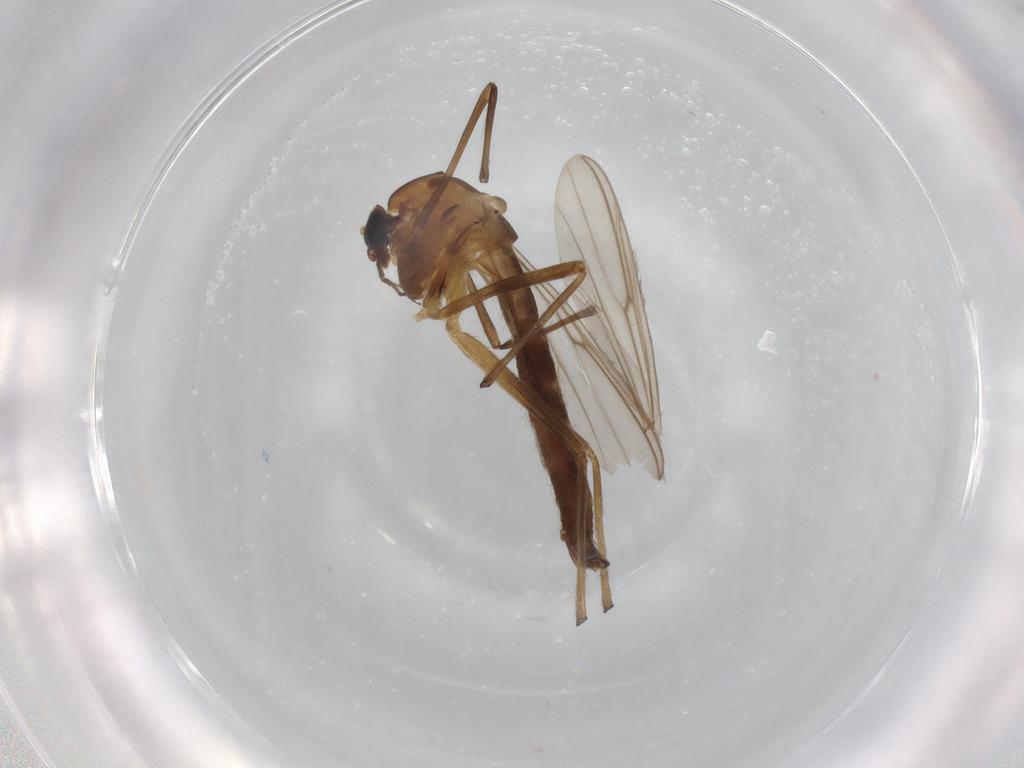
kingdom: Animalia
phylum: Arthropoda
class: Insecta
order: Diptera
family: Chironomidae
